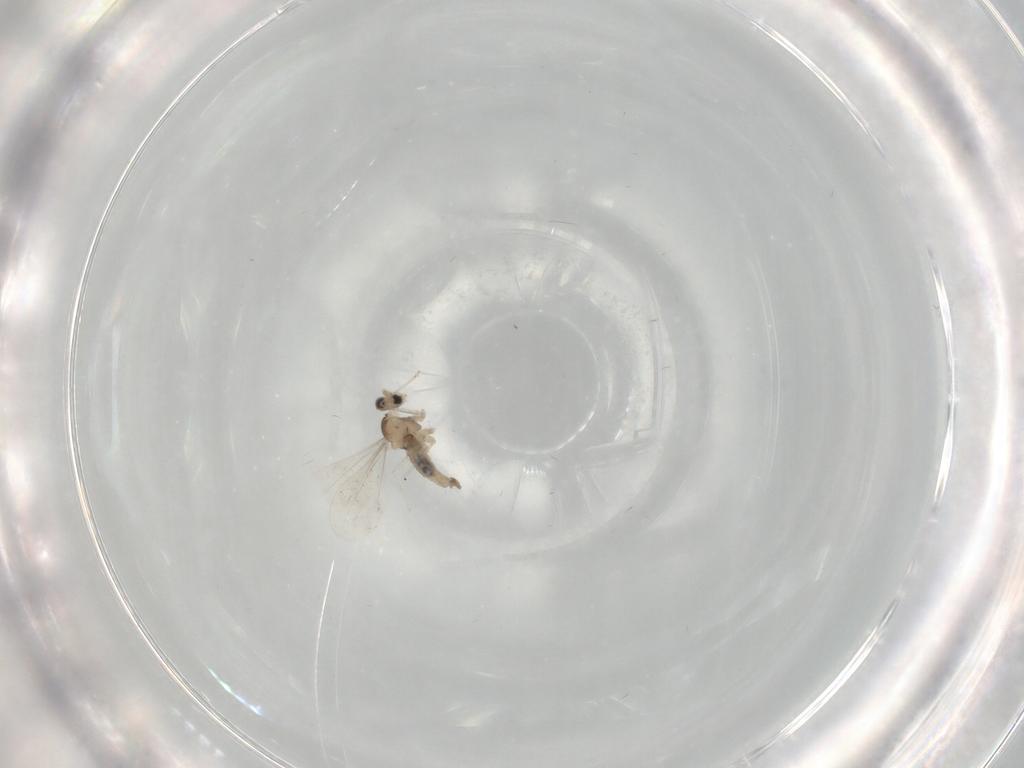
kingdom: Animalia
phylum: Arthropoda
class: Insecta
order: Diptera
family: Cecidomyiidae
